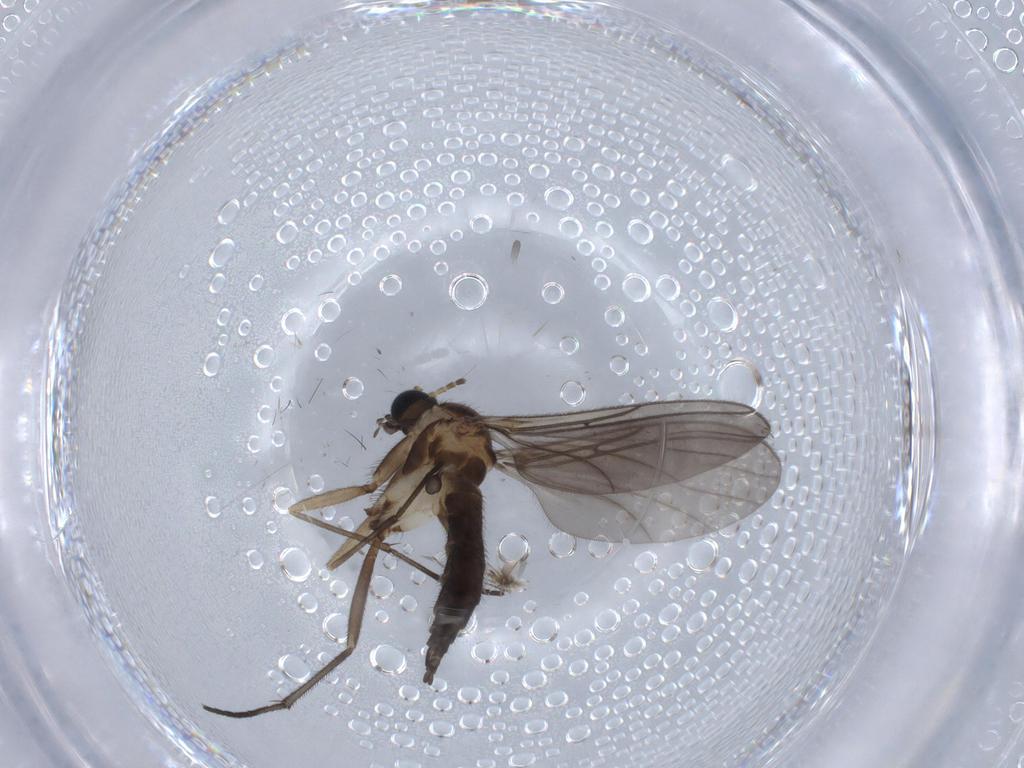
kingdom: Animalia
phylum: Arthropoda
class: Insecta
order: Diptera
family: Sciaridae
